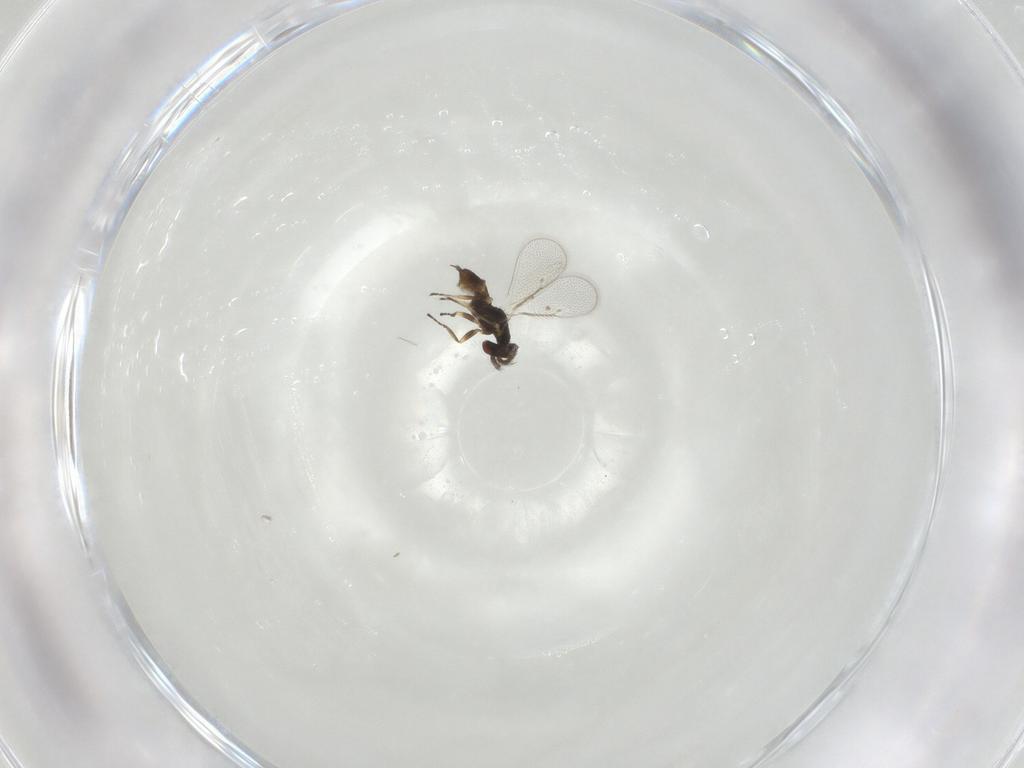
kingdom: Animalia
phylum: Arthropoda
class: Insecta
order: Hymenoptera
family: Eulophidae
